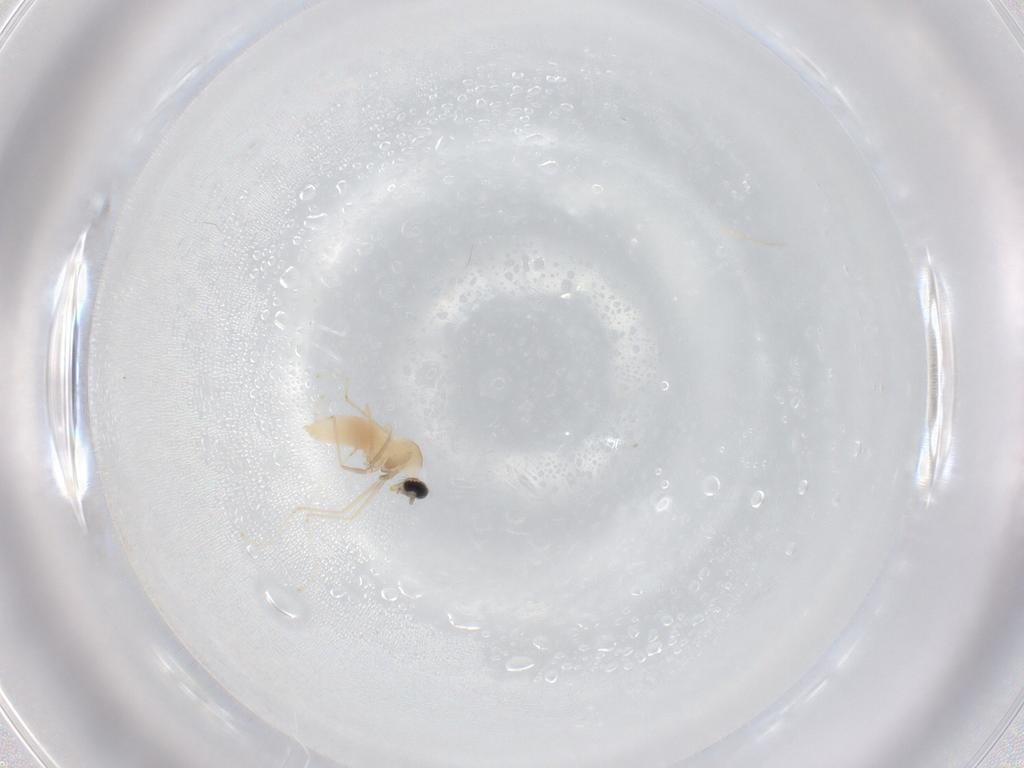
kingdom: Animalia
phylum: Arthropoda
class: Insecta
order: Diptera
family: Cecidomyiidae
